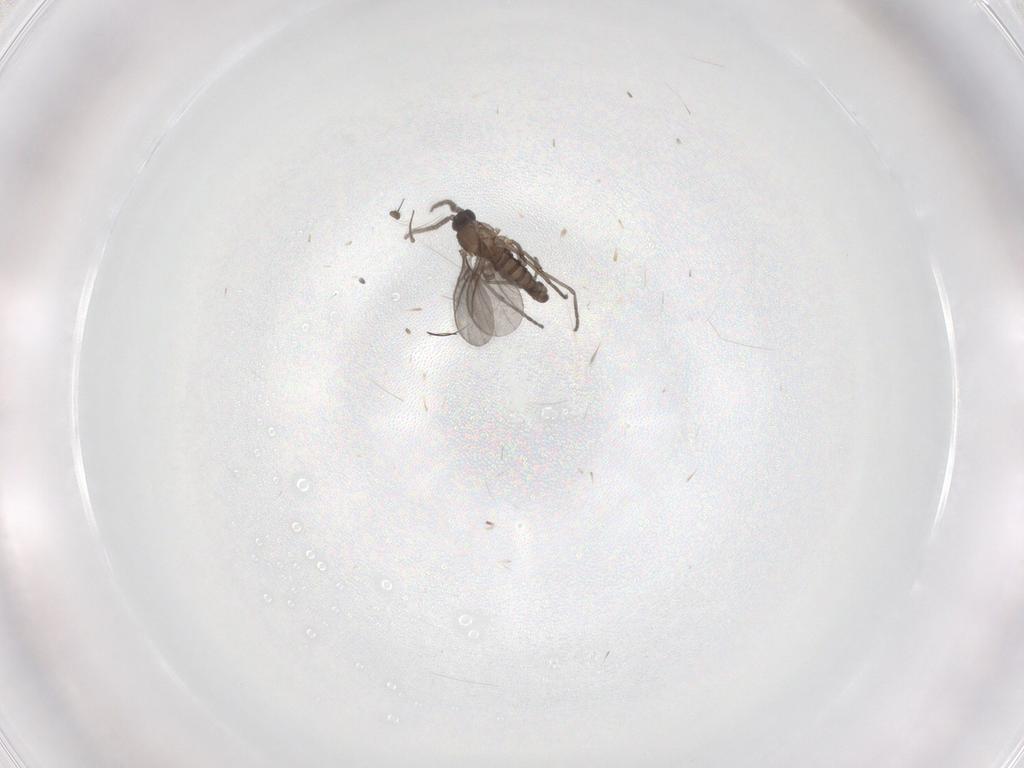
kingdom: Animalia
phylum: Arthropoda
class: Insecta
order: Diptera
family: Sciaridae
